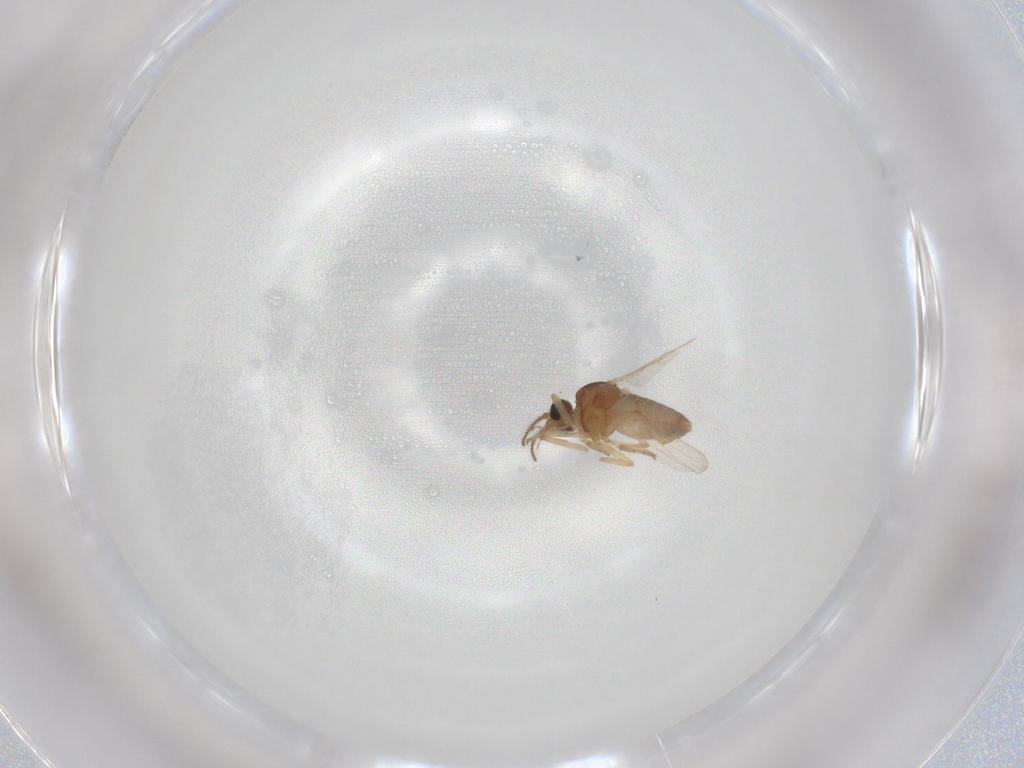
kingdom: Animalia
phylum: Arthropoda
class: Insecta
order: Diptera
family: Ceratopogonidae
